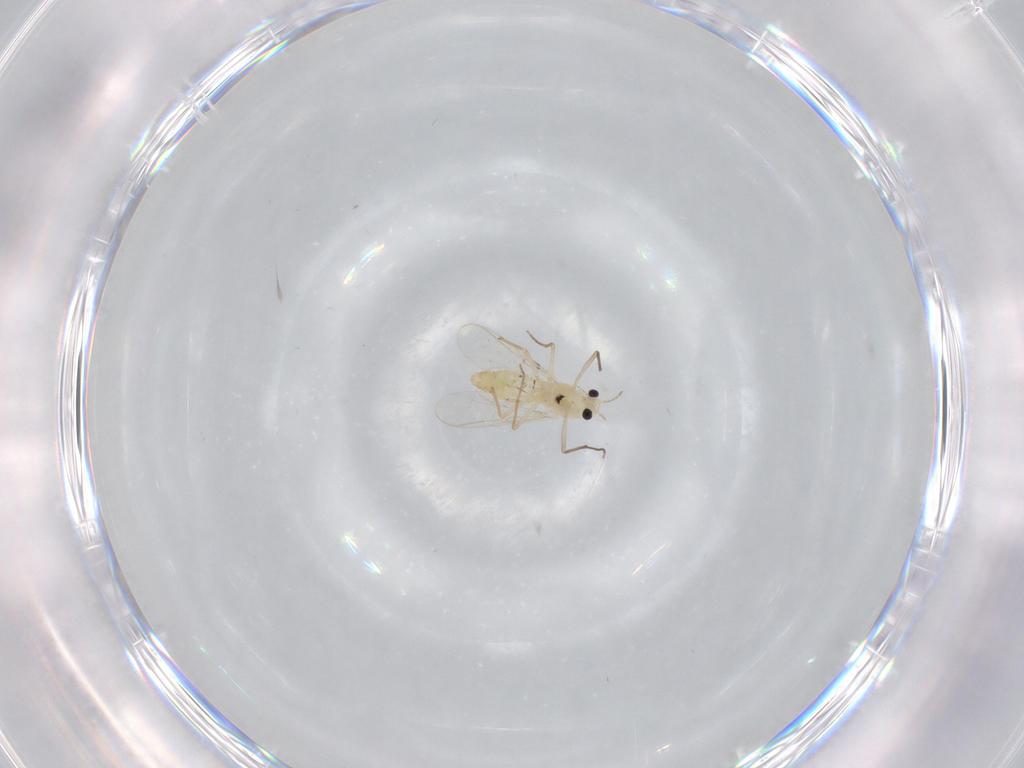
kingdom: Animalia
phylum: Arthropoda
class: Insecta
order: Diptera
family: Chironomidae
